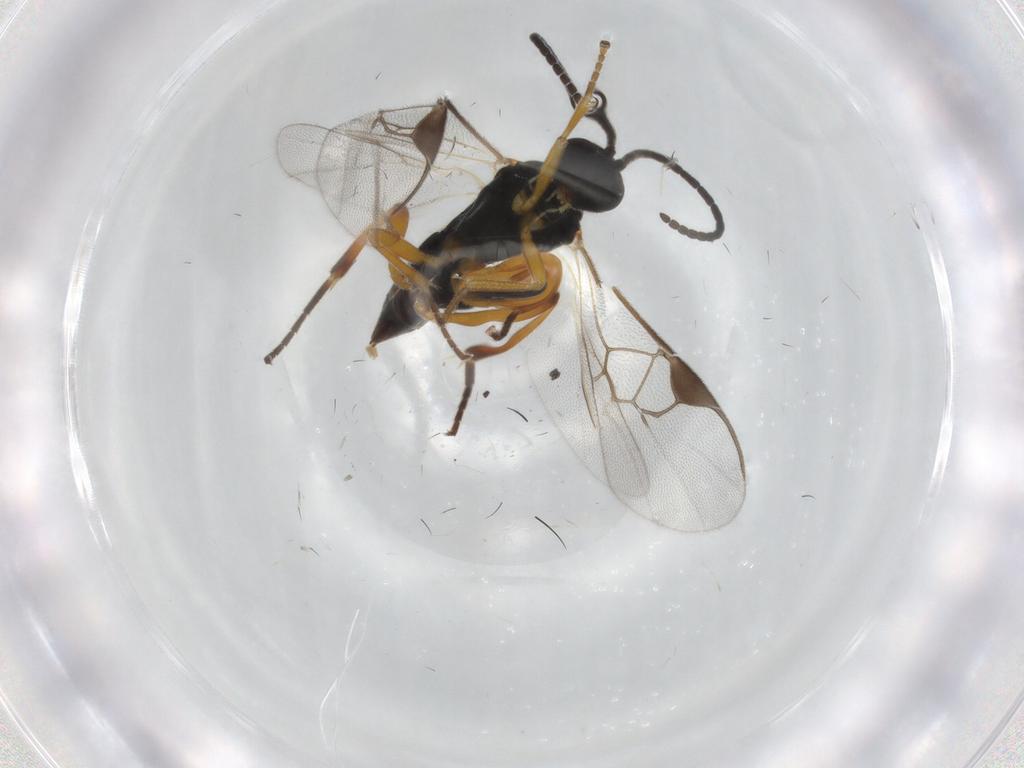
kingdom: Animalia
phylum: Arthropoda
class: Insecta
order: Hymenoptera
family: Braconidae
